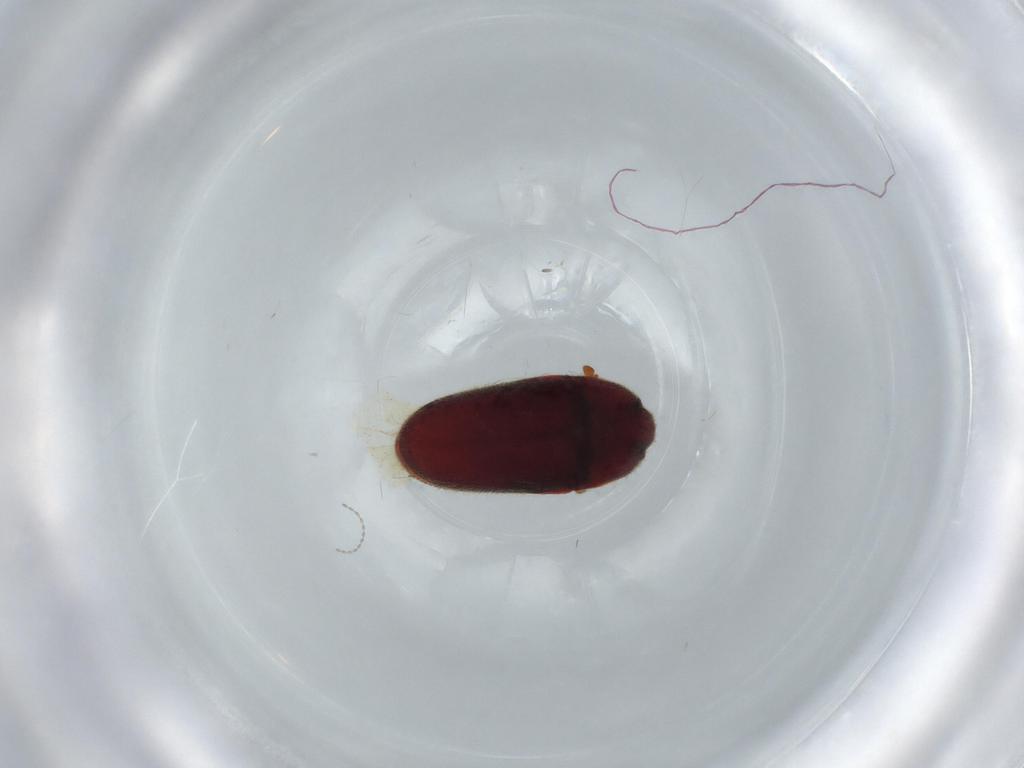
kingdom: Animalia
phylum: Arthropoda
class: Insecta
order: Coleoptera
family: Throscidae
